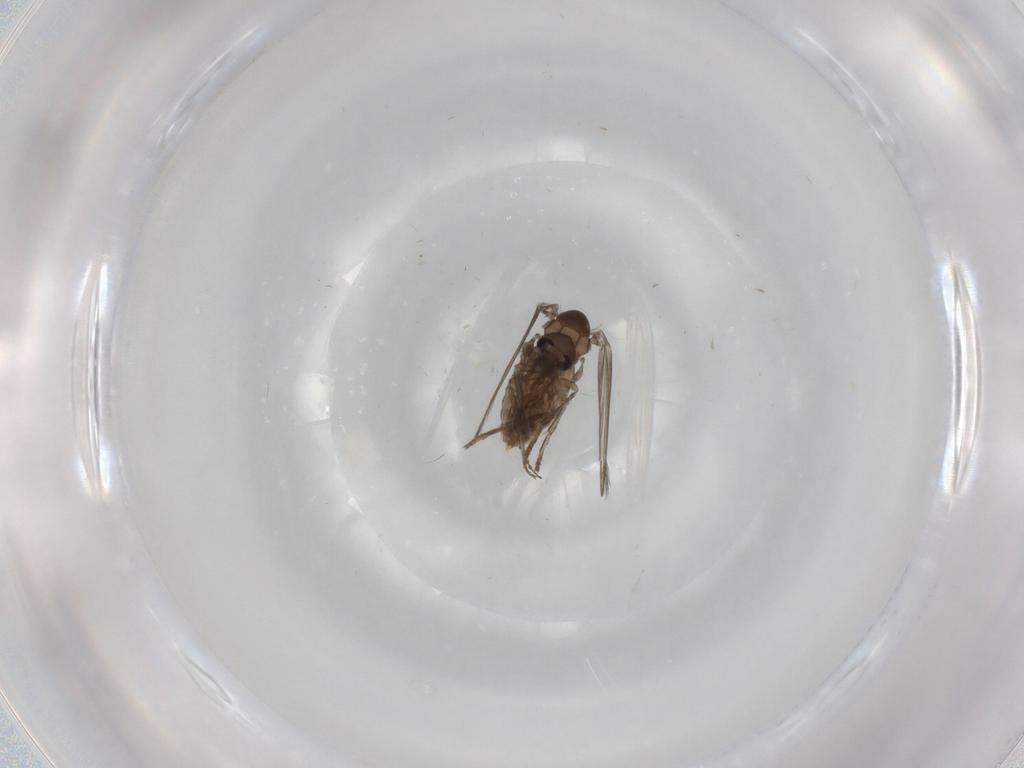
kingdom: Animalia
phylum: Arthropoda
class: Insecta
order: Diptera
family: Psychodidae
